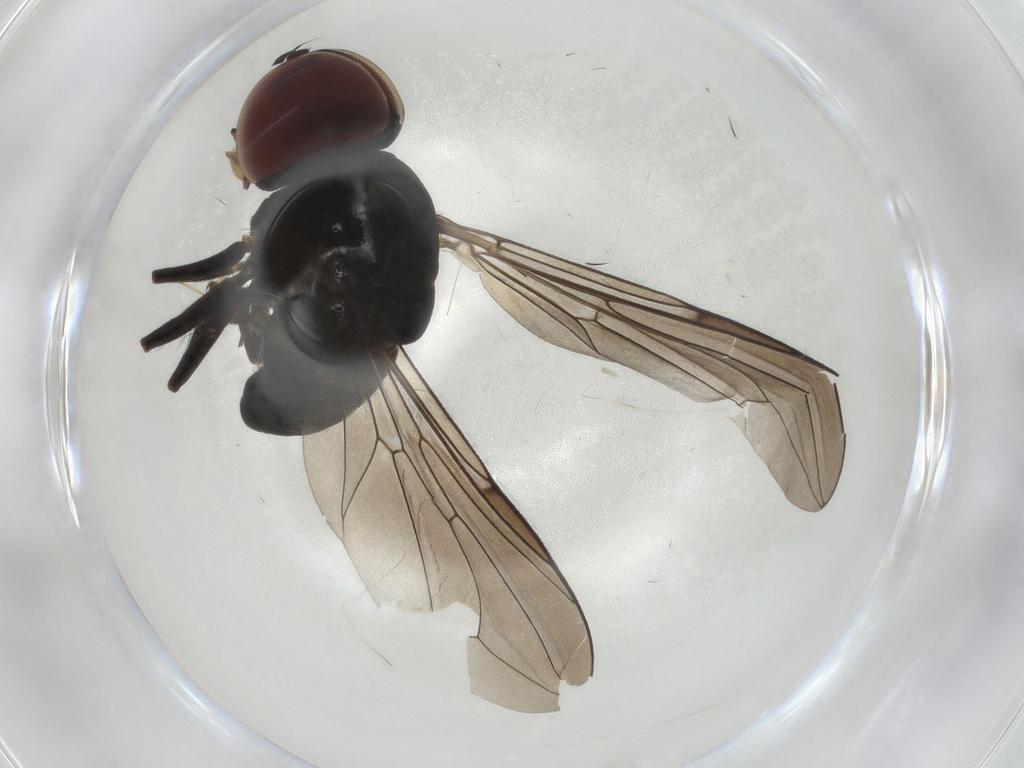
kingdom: Animalia
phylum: Arthropoda
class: Insecta
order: Diptera
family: Pipunculidae
